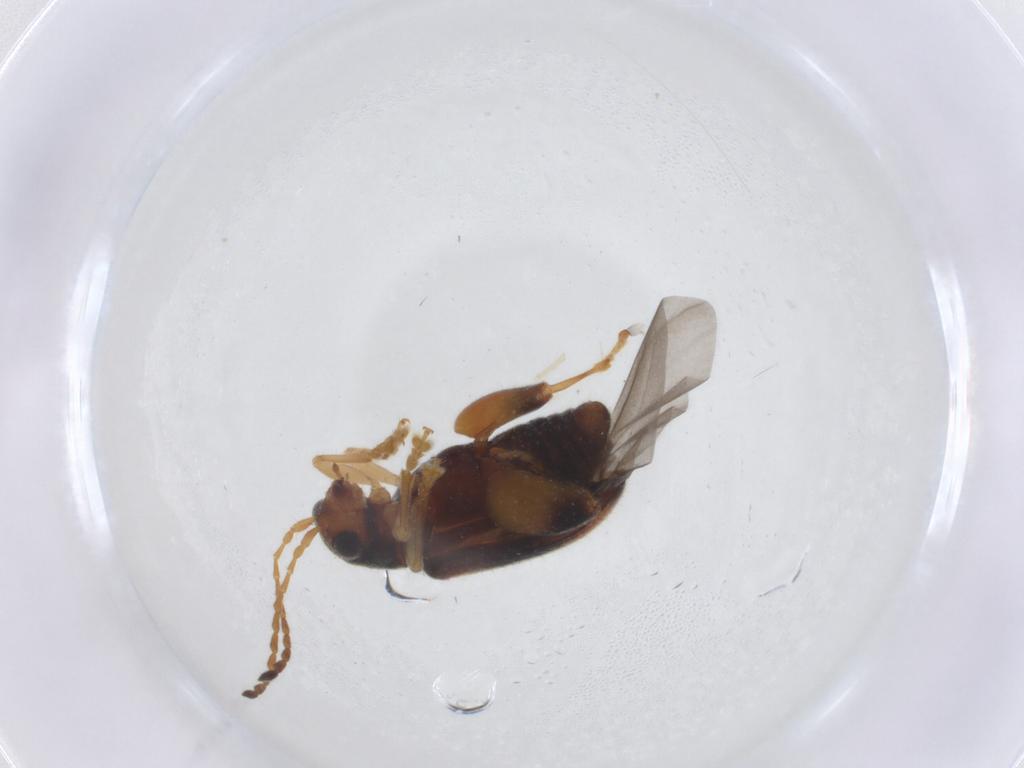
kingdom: Animalia
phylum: Arthropoda
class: Insecta
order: Coleoptera
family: Chrysomelidae
